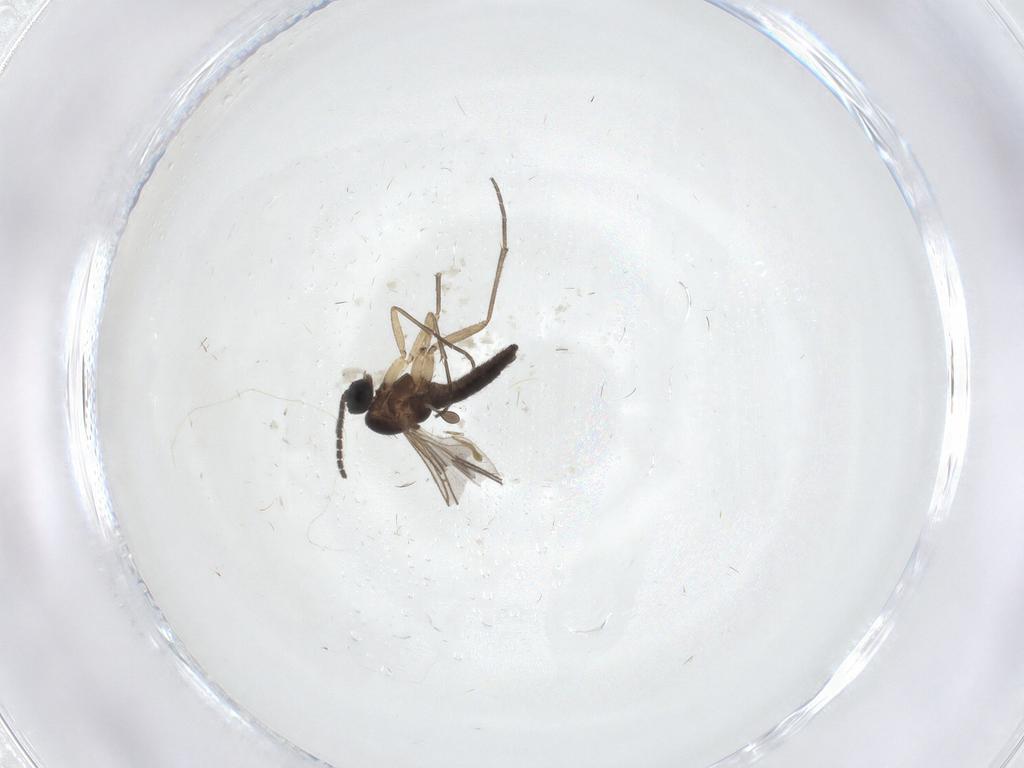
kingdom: Animalia
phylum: Arthropoda
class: Insecta
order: Diptera
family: Sciaridae
